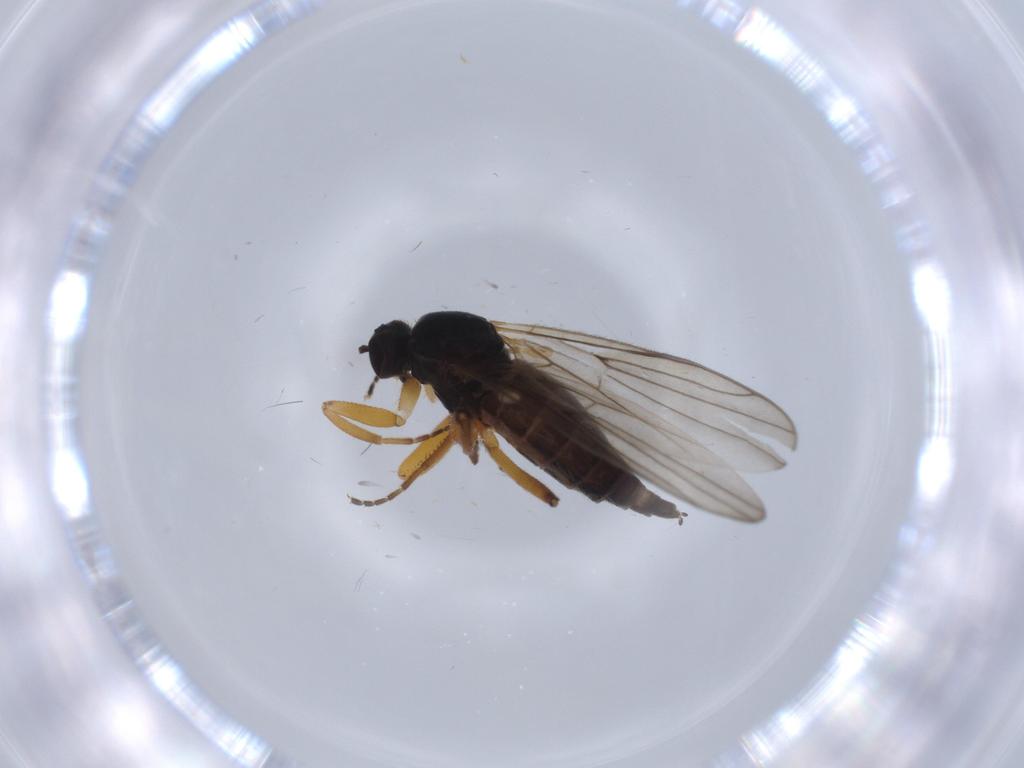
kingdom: Animalia
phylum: Arthropoda
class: Insecta
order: Diptera
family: Hybotidae
